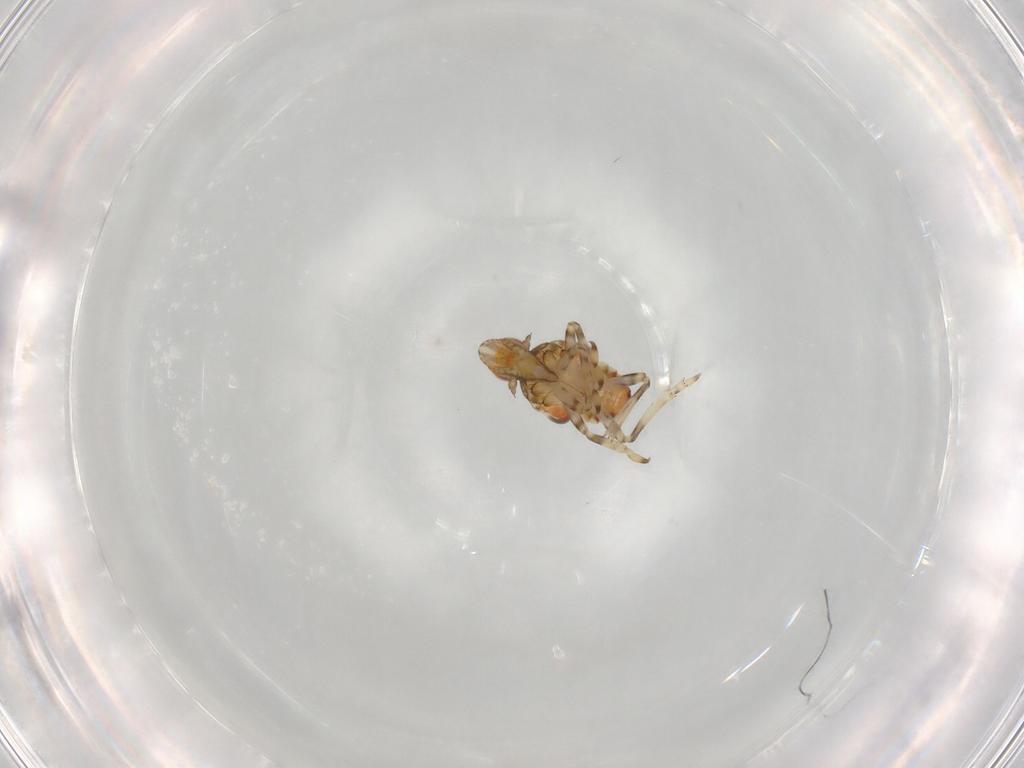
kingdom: Animalia
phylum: Arthropoda
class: Insecta
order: Hemiptera
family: Tropiduchidae
